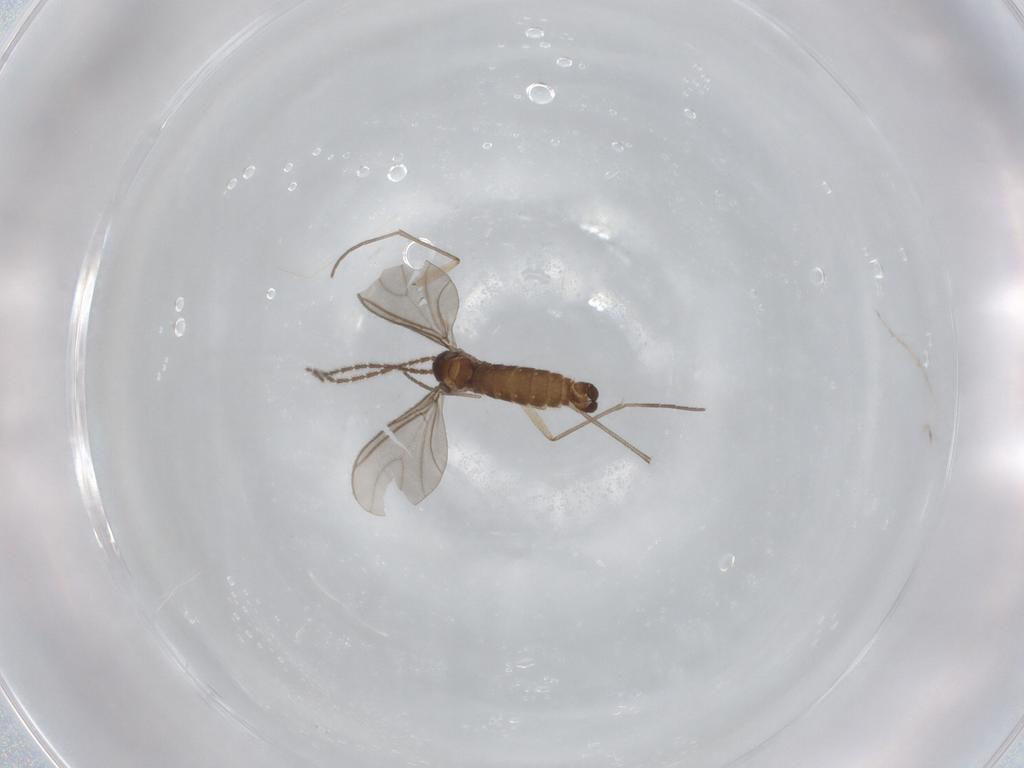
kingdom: Animalia
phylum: Arthropoda
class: Insecta
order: Diptera
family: Sciaridae
